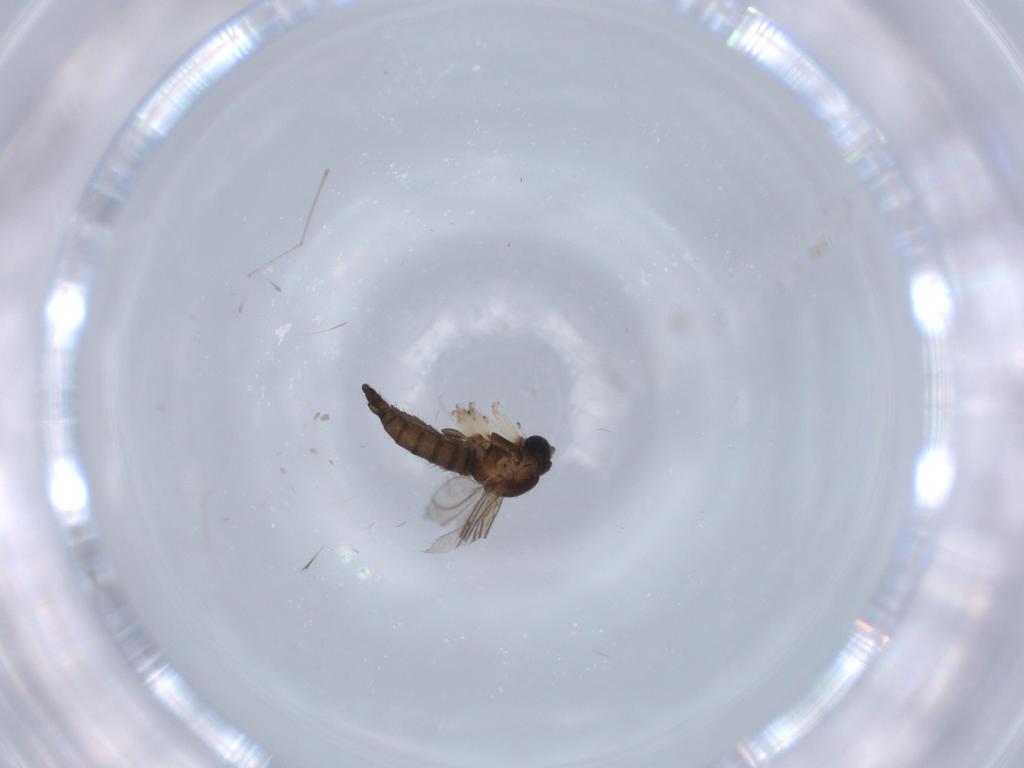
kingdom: Animalia
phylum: Arthropoda
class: Insecta
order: Diptera
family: Sciaridae
